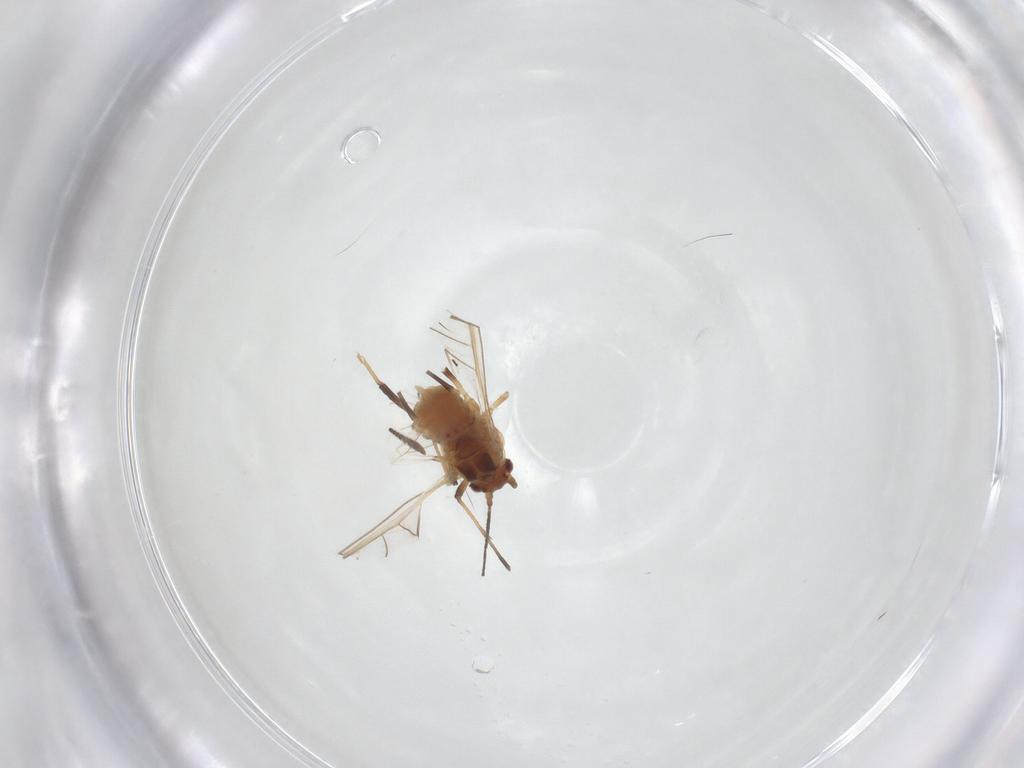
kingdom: Animalia
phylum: Arthropoda
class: Insecta
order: Hemiptera
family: Aphididae
